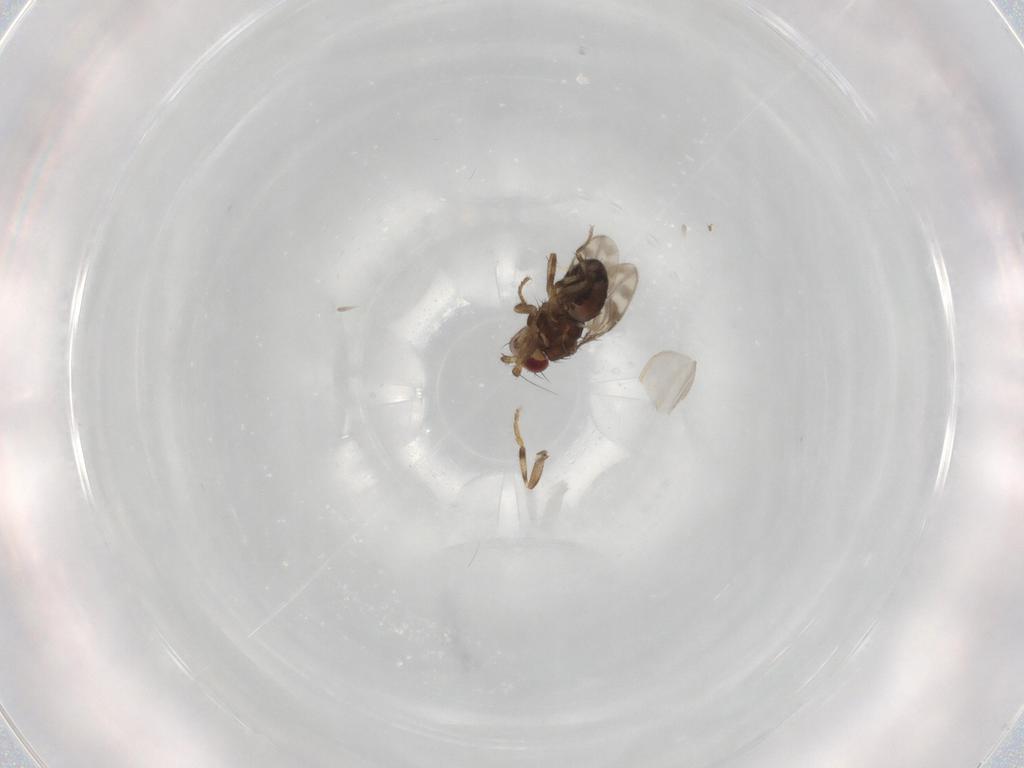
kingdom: Animalia
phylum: Arthropoda
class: Insecta
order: Diptera
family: Sphaeroceridae
